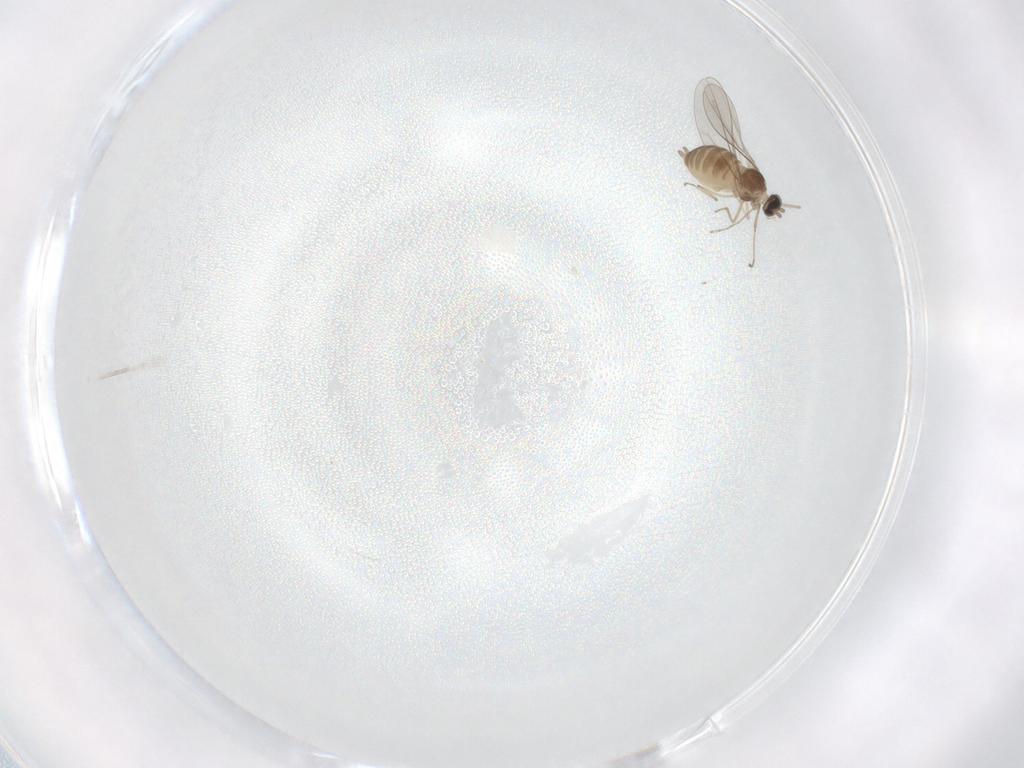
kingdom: Animalia
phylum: Arthropoda
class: Insecta
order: Diptera
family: Cecidomyiidae
